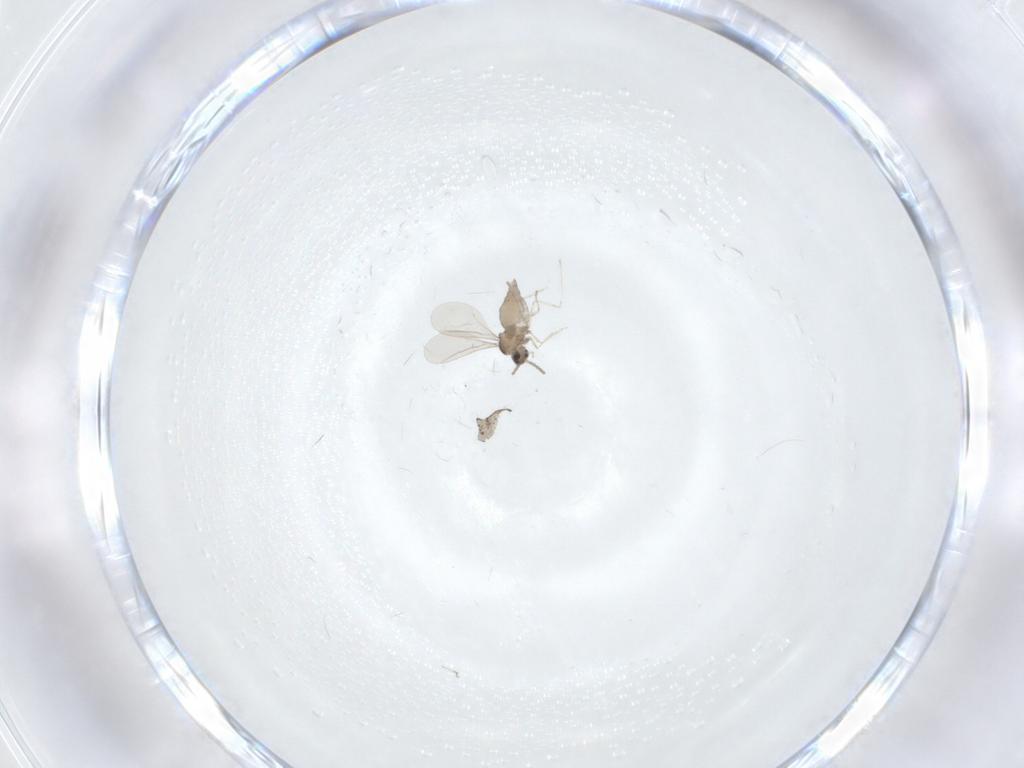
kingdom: Animalia
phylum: Arthropoda
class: Insecta
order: Diptera
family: Cecidomyiidae
